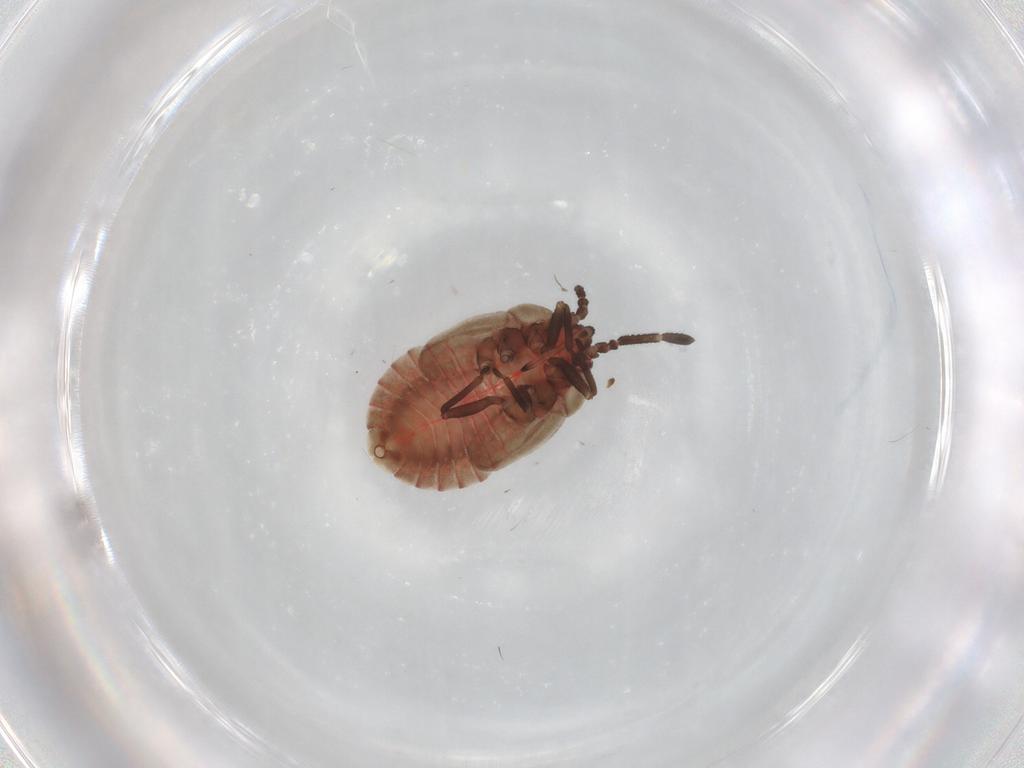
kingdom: Animalia
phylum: Arthropoda
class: Insecta
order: Hemiptera
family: Tingidae
